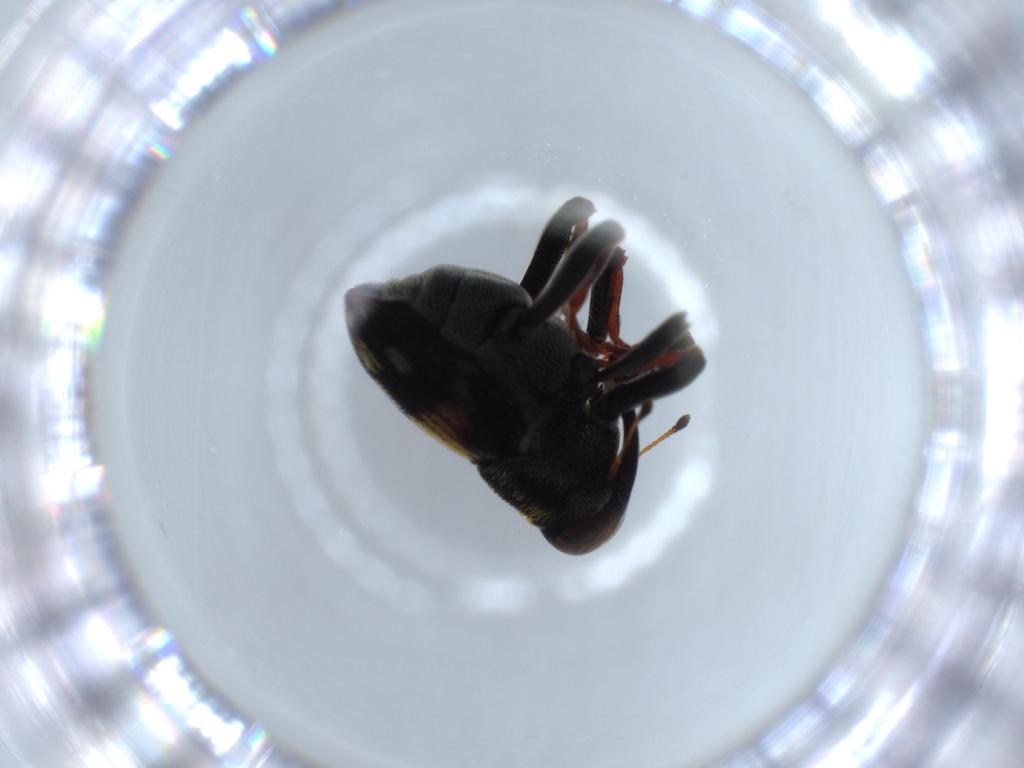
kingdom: Animalia
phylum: Arthropoda
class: Insecta
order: Coleoptera
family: Curculionidae
